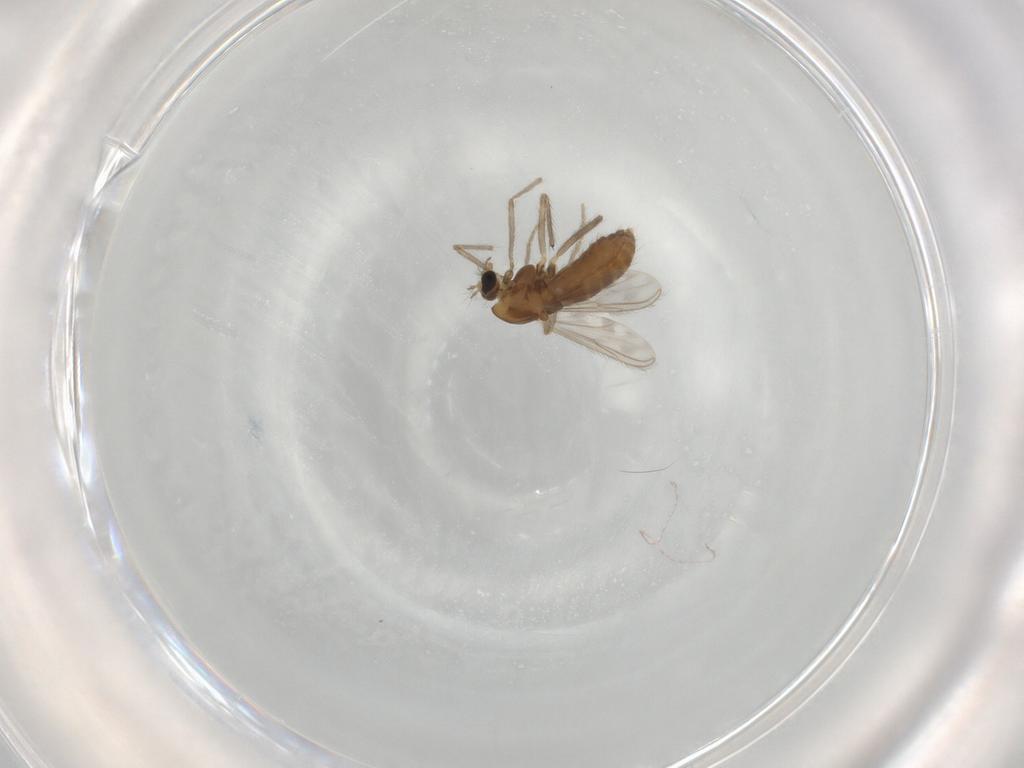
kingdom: Animalia
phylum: Arthropoda
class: Insecta
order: Diptera
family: Chironomidae
